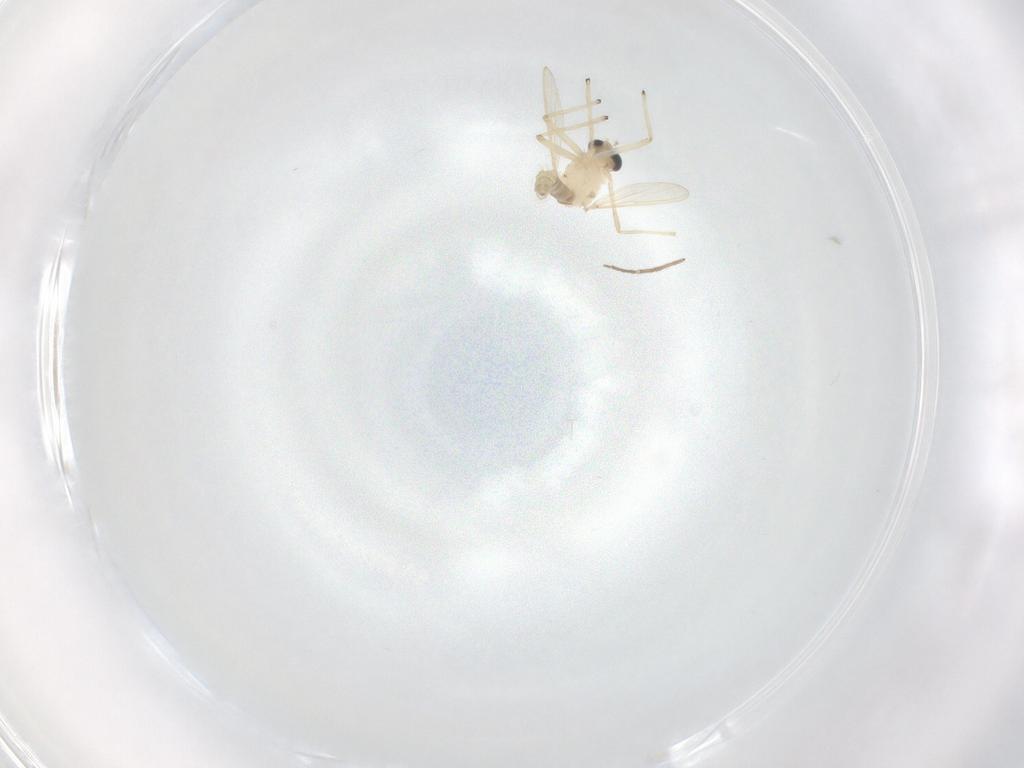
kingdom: Animalia
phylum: Arthropoda
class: Insecta
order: Diptera
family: Chironomidae
